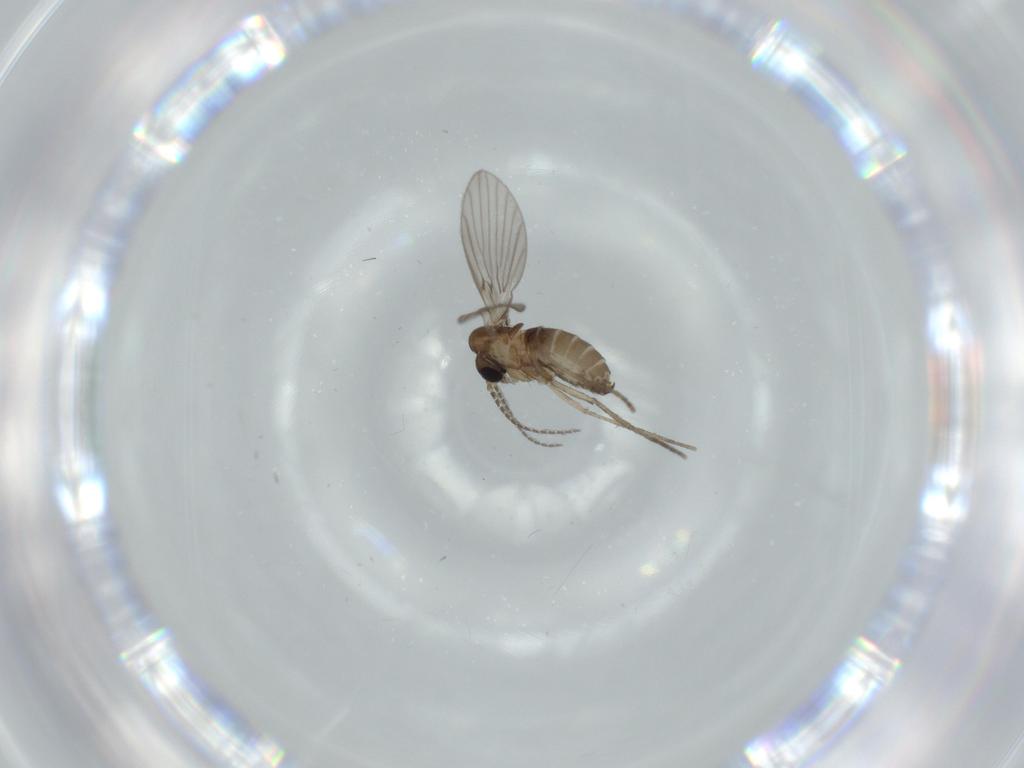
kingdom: Animalia
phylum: Arthropoda
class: Insecta
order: Diptera
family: Psychodidae
